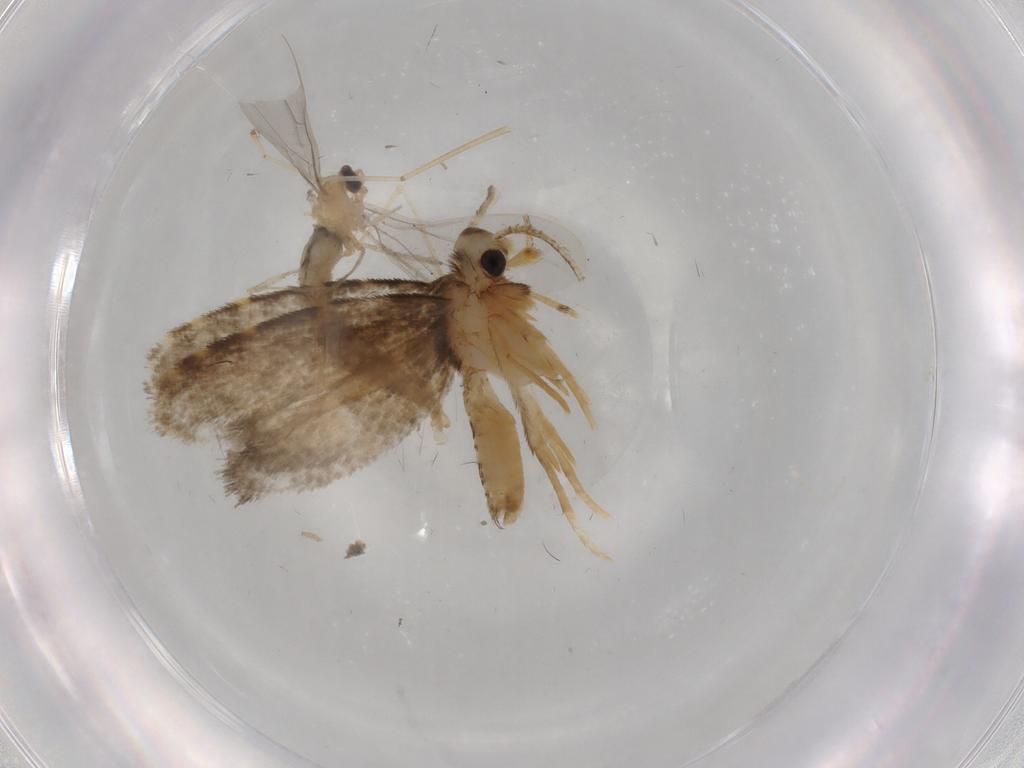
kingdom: Animalia
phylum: Arthropoda
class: Insecta
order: Diptera
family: Cecidomyiidae
